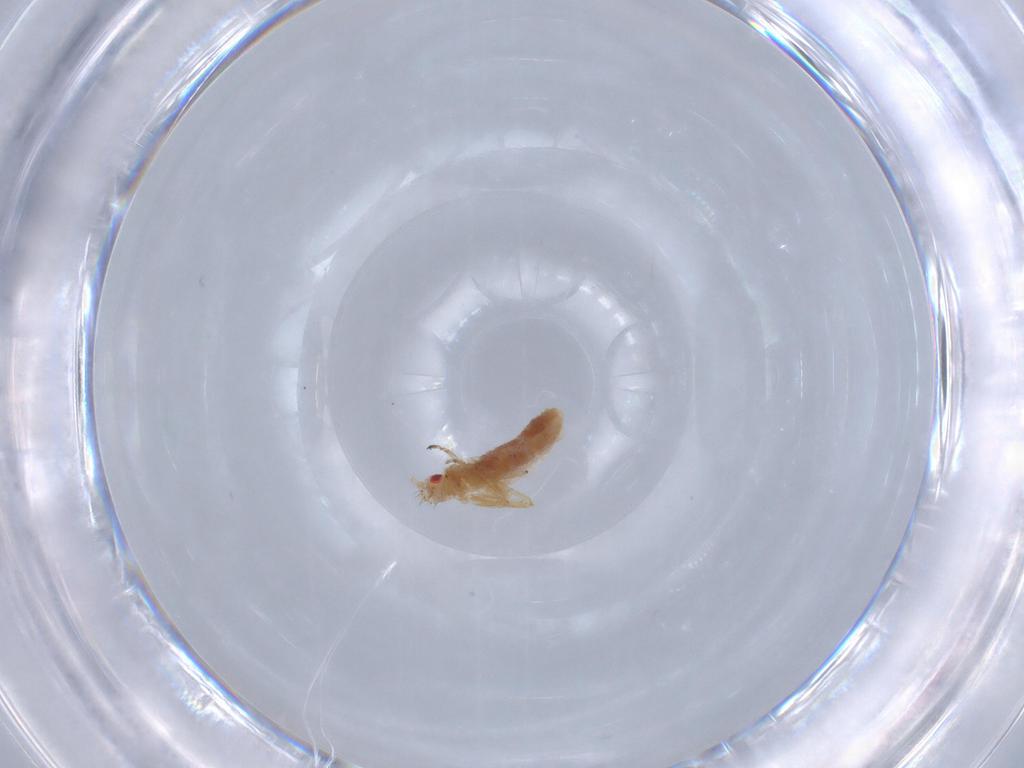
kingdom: Animalia
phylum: Arthropoda
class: Insecta
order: Hemiptera
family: Aphididae
